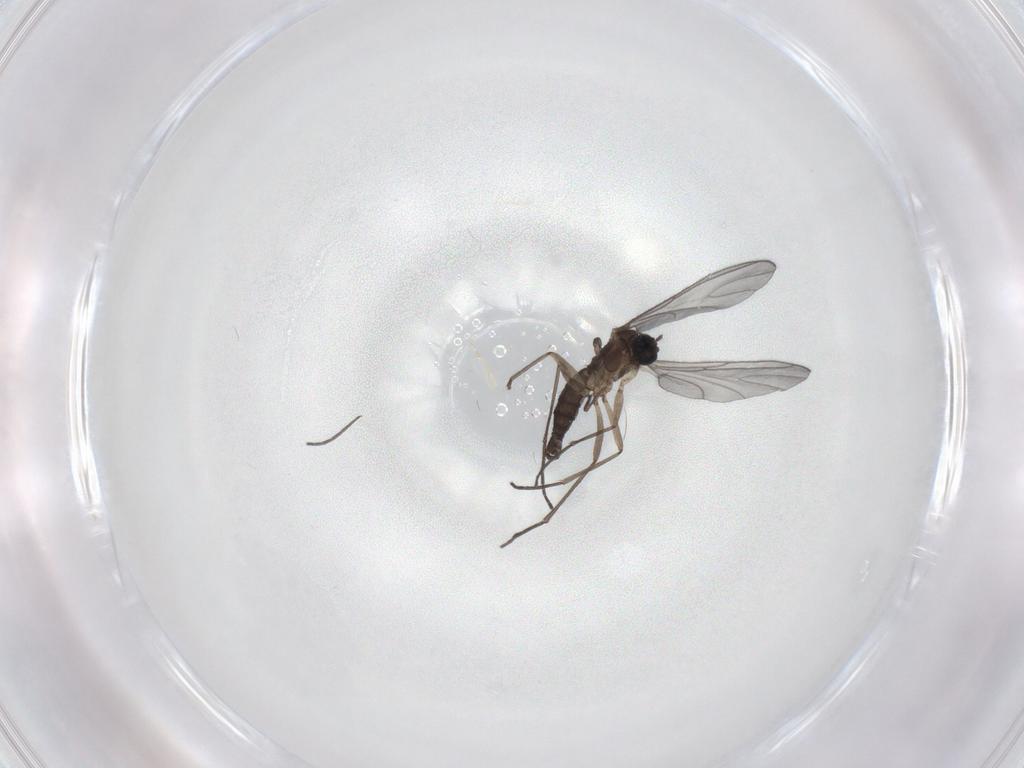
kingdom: Animalia
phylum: Arthropoda
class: Insecta
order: Diptera
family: Sciaridae
